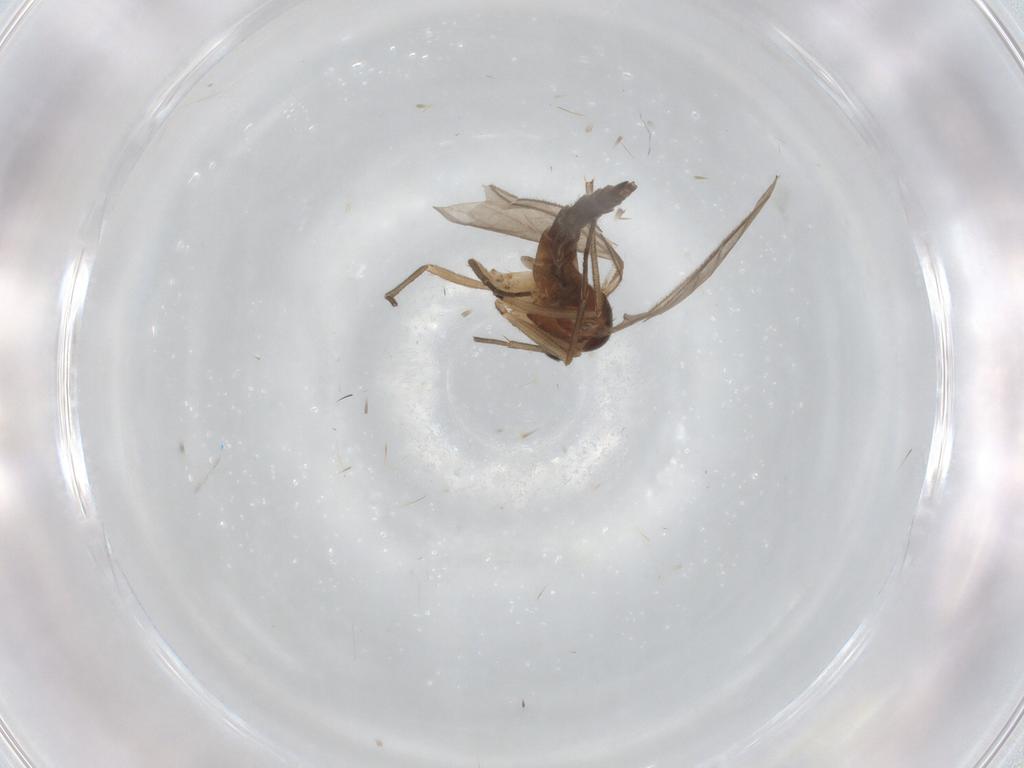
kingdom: Animalia
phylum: Arthropoda
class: Insecta
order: Diptera
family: Sciaridae
